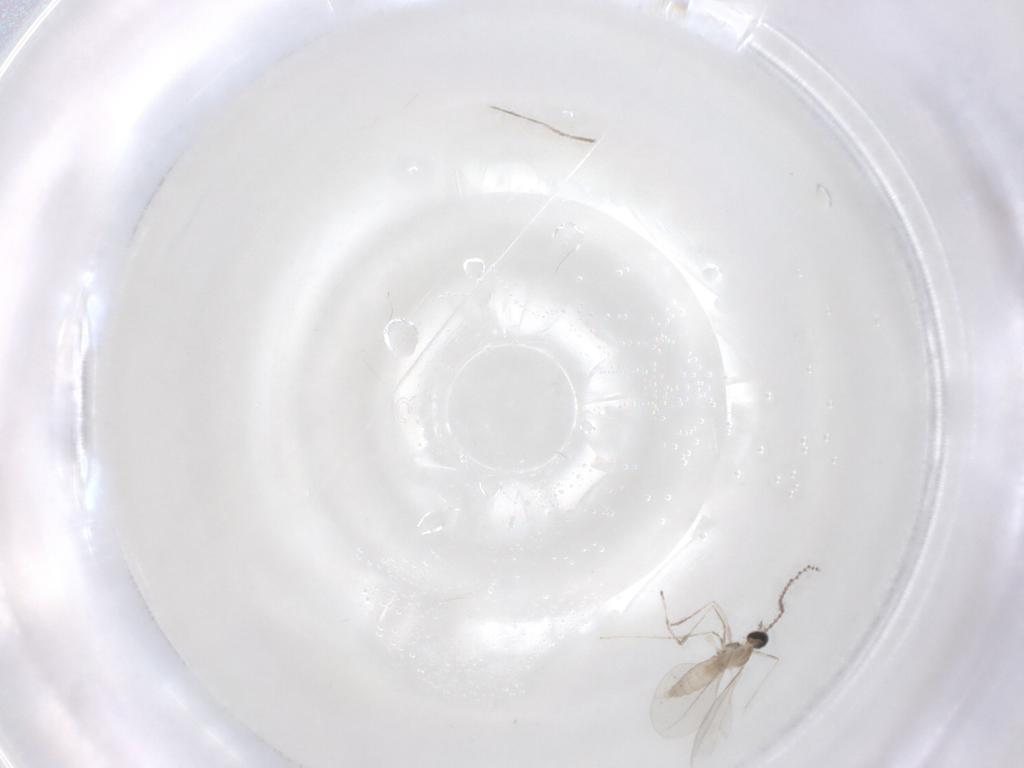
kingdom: Animalia
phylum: Arthropoda
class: Insecta
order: Diptera
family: Cecidomyiidae
